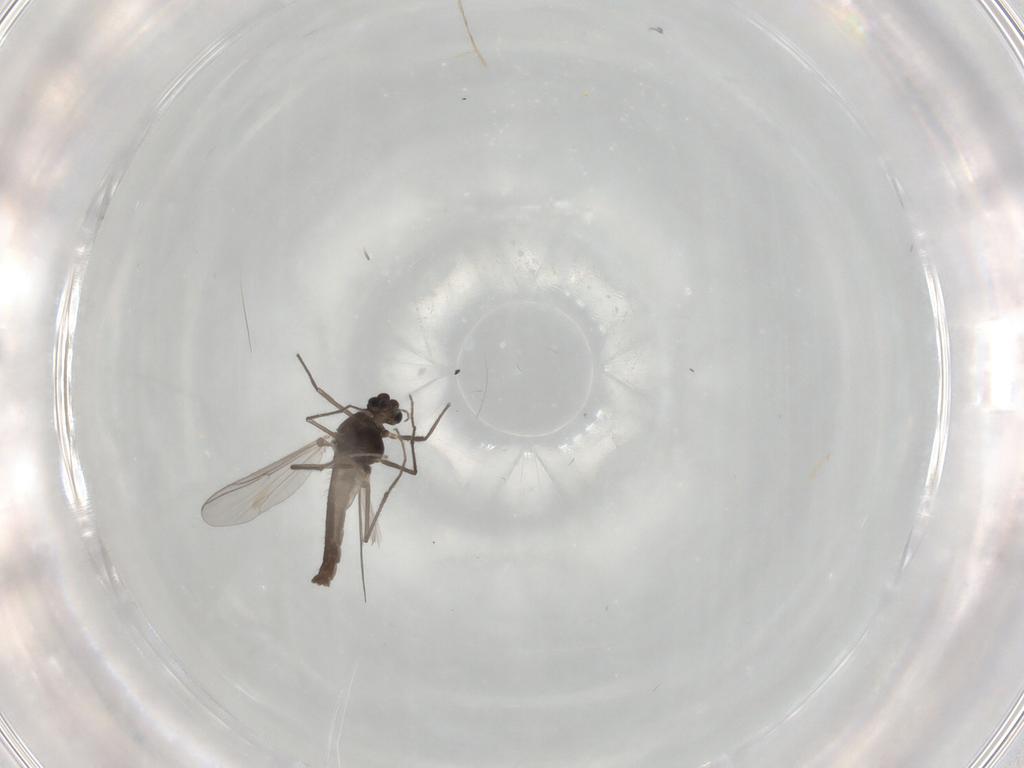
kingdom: Animalia
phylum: Arthropoda
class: Insecta
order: Diptera
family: Chironomidae
